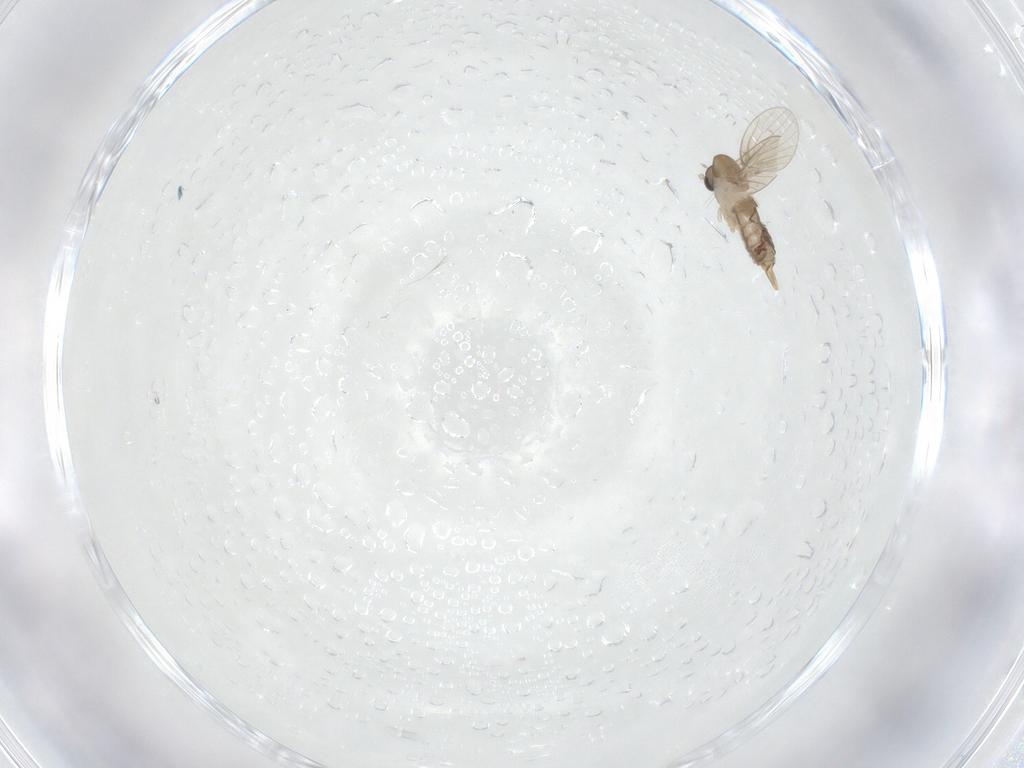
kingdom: Animalia
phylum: Arthropoda
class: Insecta
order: Diptera
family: Psychodidae
